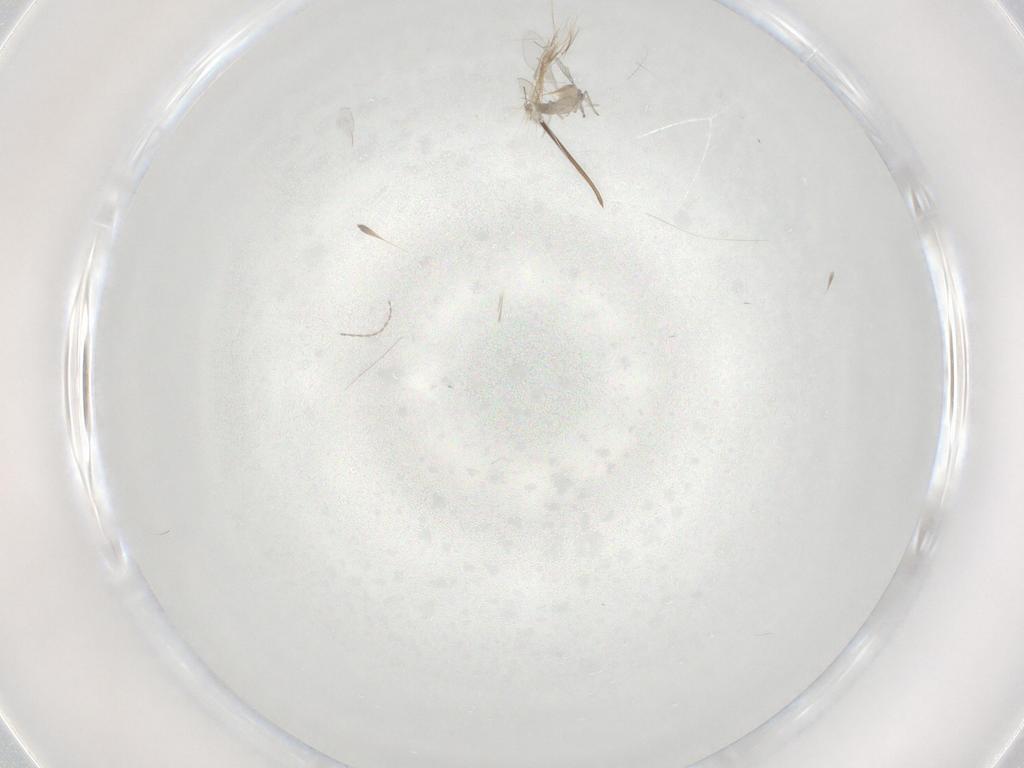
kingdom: Animalia
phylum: Arthropoda
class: Insecta
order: Diptera
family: Cecidomyiidae
